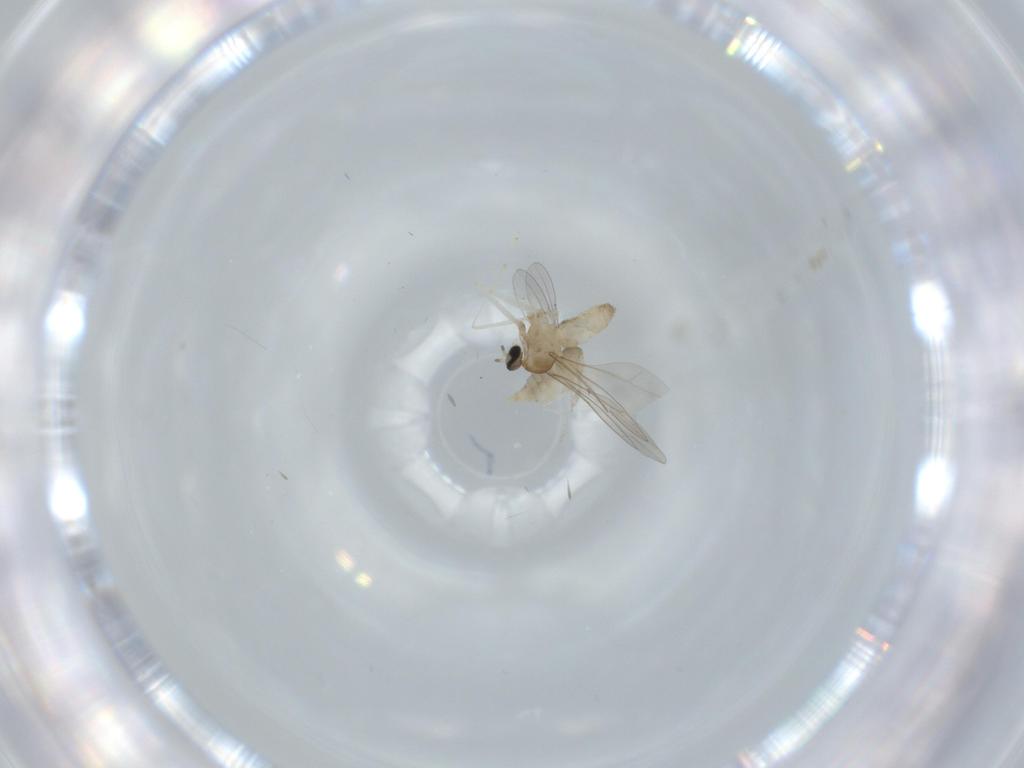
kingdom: Animalia
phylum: Arthropoda
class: Insecta
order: Diptera
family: Cecidomyiidae
